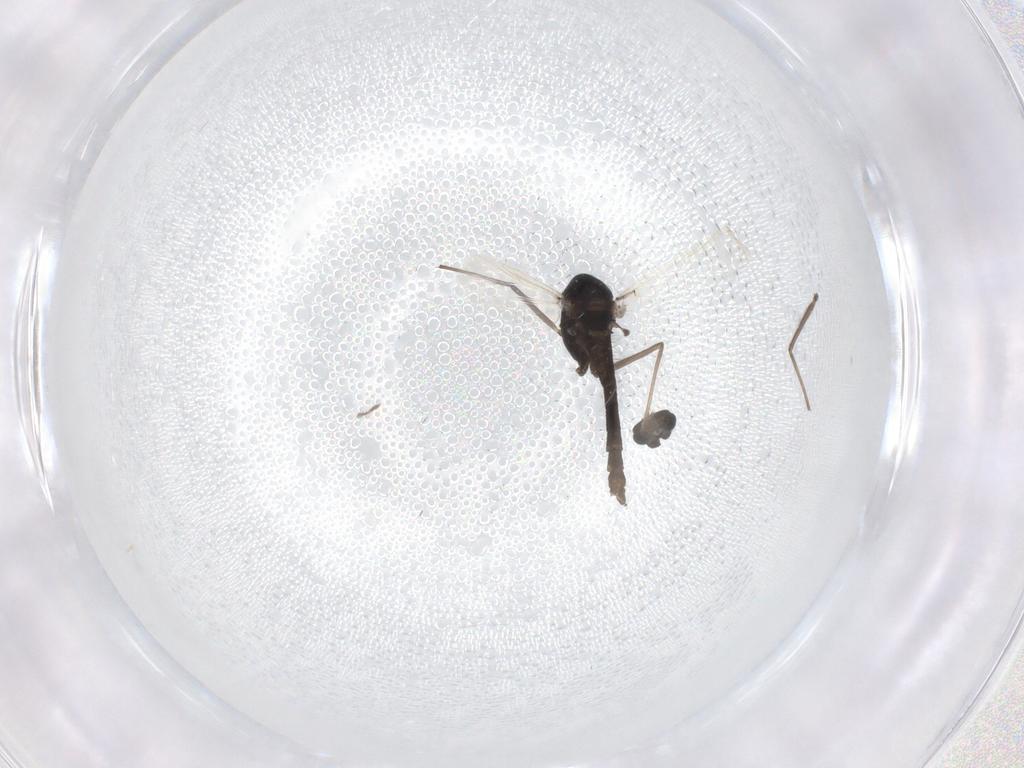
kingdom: Animalia
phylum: Arthropoda
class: Insecta
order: Diptera
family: Chironomidae
